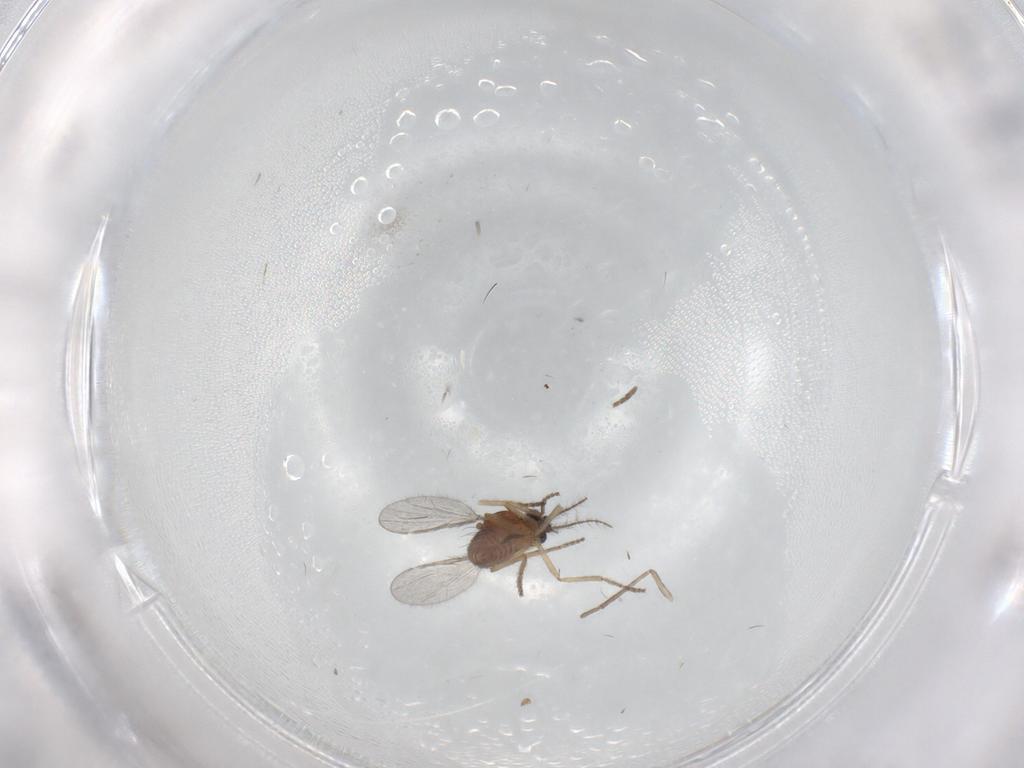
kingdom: Animalia
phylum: Arthropoda
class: Insecta
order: Diptera
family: Ceratopogonidae
